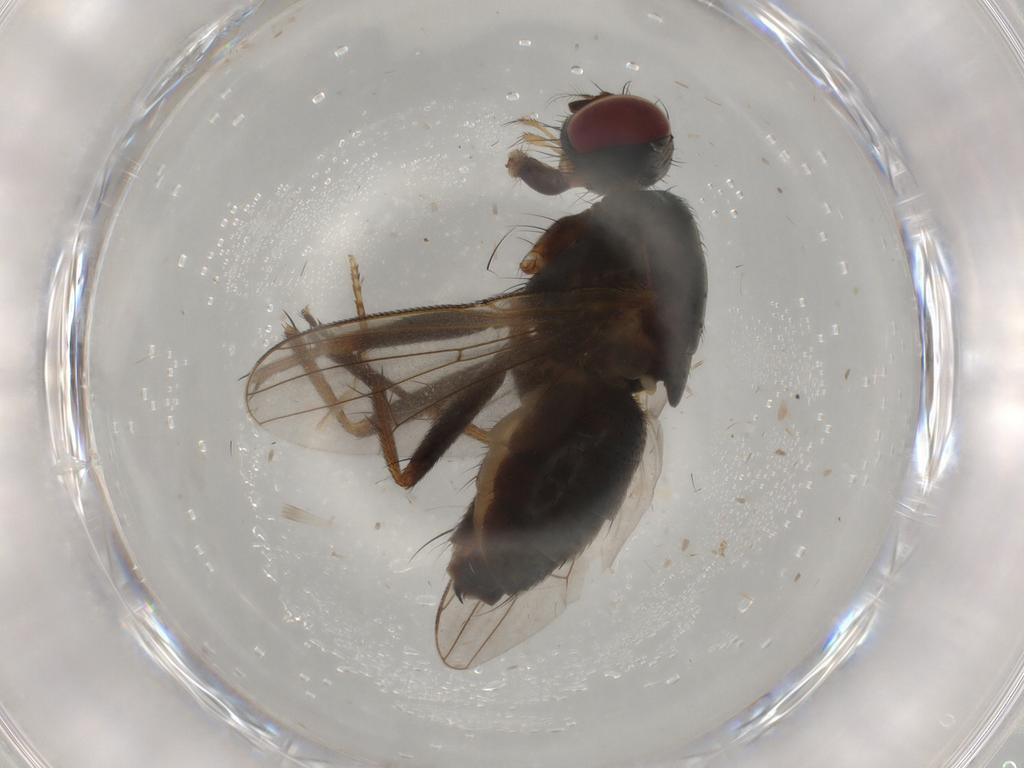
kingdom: Animalia
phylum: Arthropoda
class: Insecta
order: Diptera
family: Muscidae
